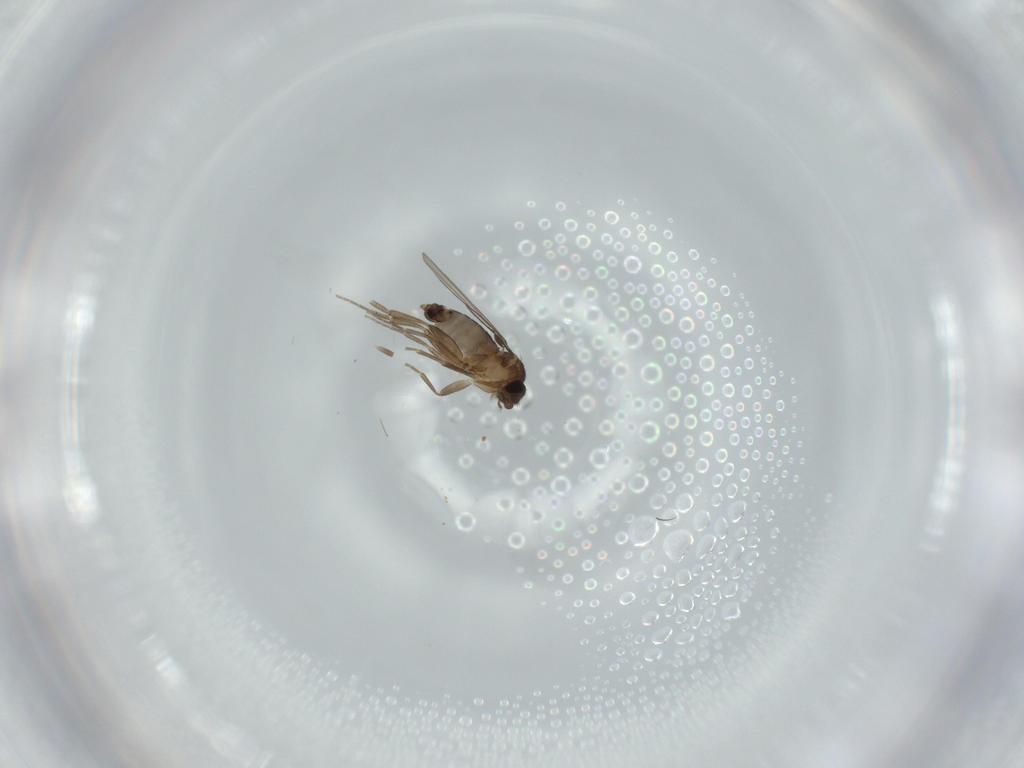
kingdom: Animalia
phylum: Arthropoda
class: Insecta
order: Diptera
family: Phoridae
